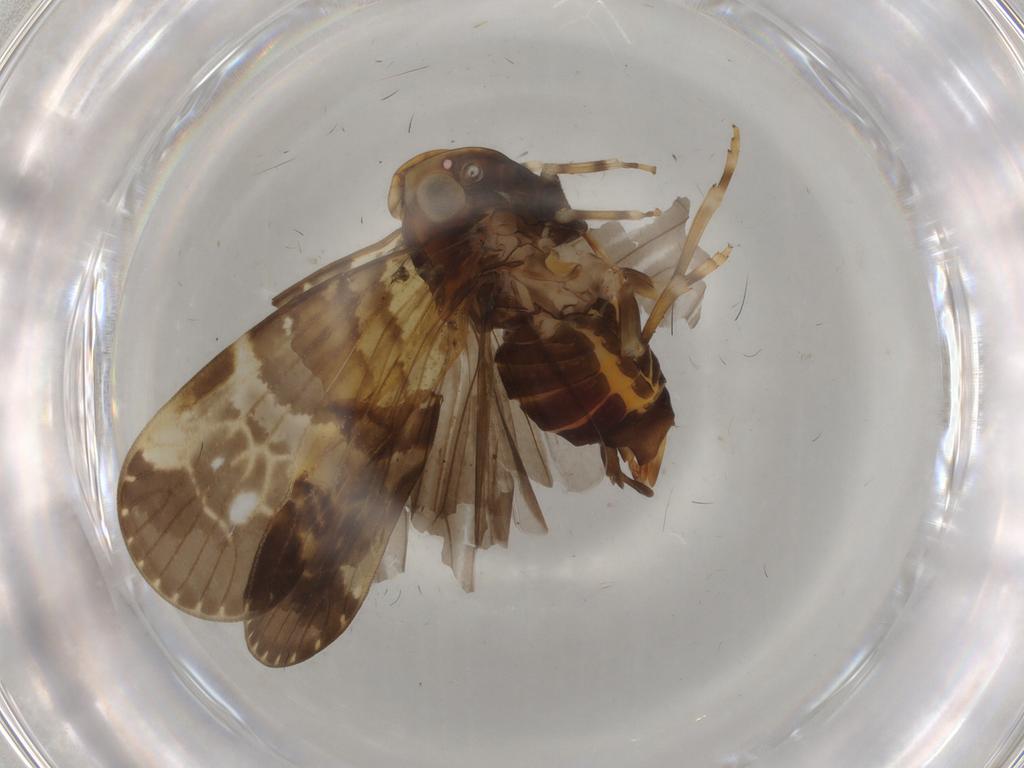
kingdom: Animalia
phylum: Arthropoda
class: Insecta
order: Hemiptera
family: Cixiidae
